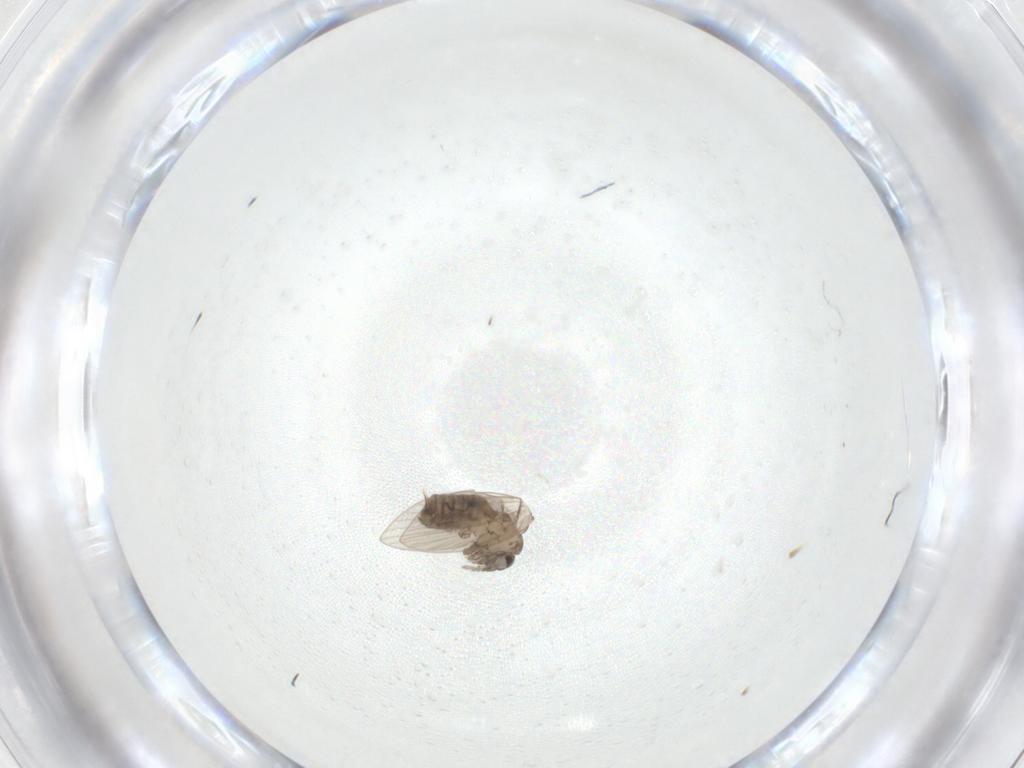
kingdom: Animalia
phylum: Arthropoda
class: Insecta
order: Diptera
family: Psychodidae
